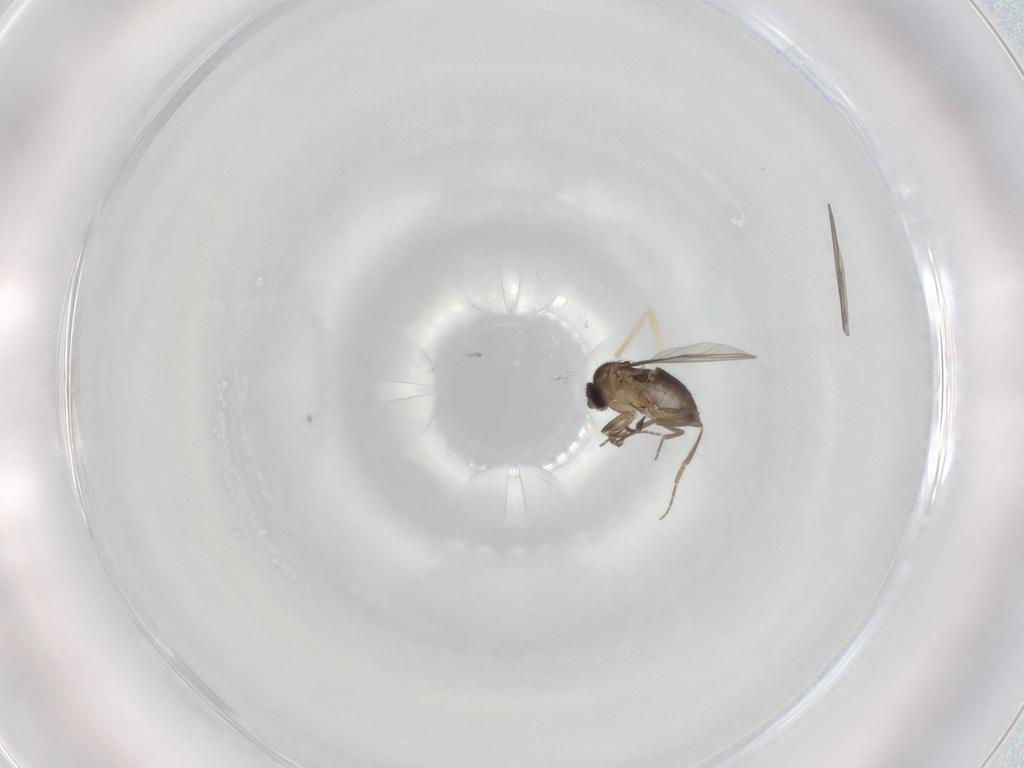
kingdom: Animalia
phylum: Arthropoda
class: Insecta
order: Diptera
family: Chironomidae
